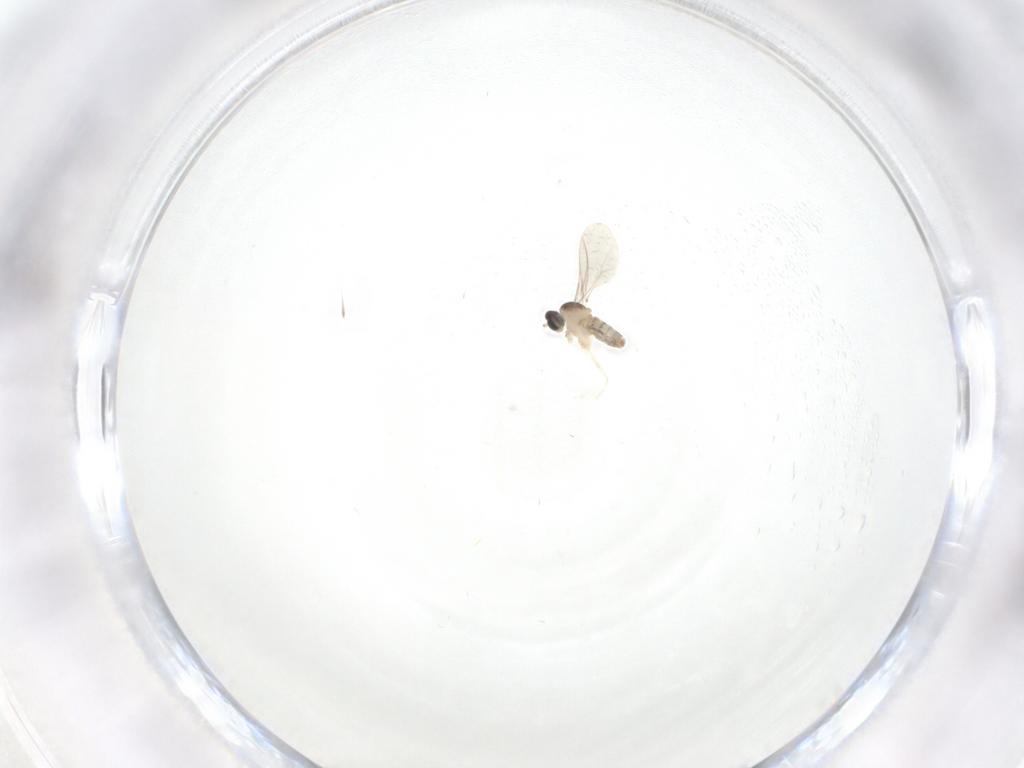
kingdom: Animalia
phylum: Arthropoda
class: Insecta
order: Diptera
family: Cecidomyiidae
